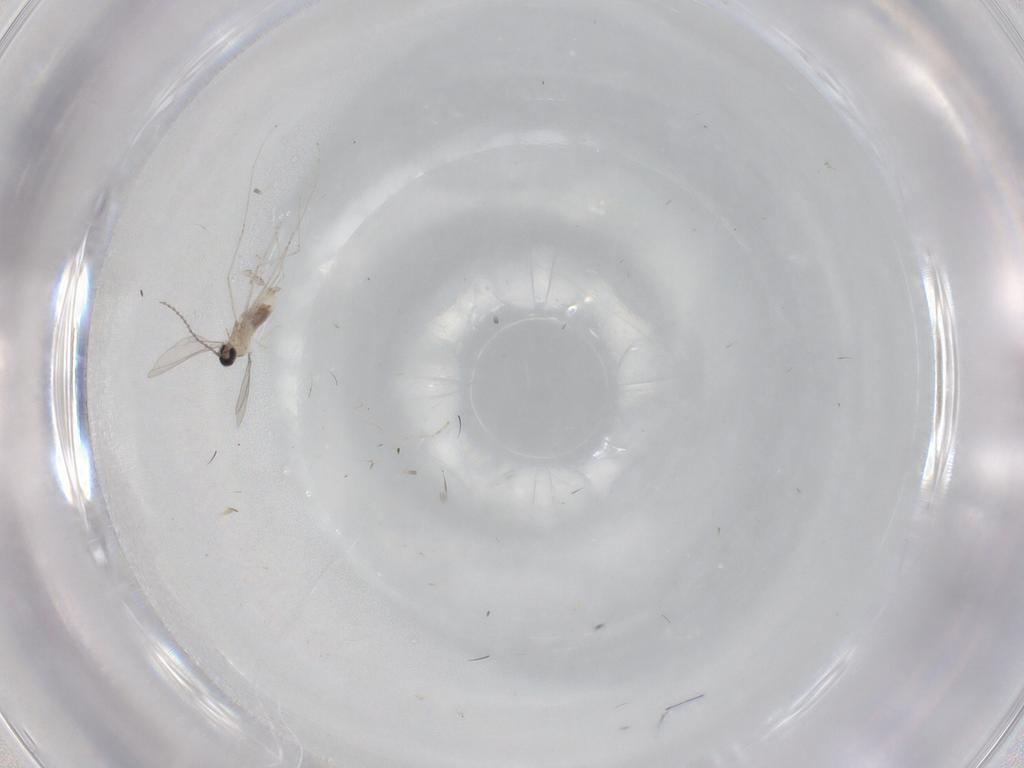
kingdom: Animalia
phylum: Arthropoda
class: Insecta
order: Diptera
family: Cecidomyiidae
